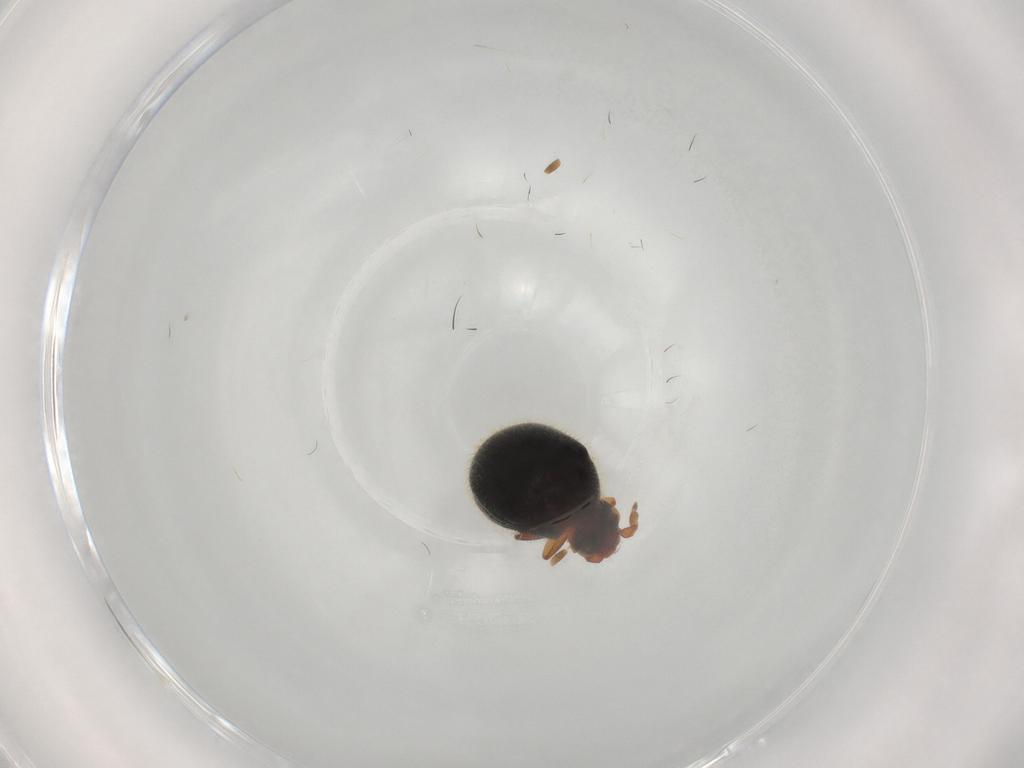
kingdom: Animalia
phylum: Arthropoda
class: Insecta
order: Coleoptera
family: Ptinidae
